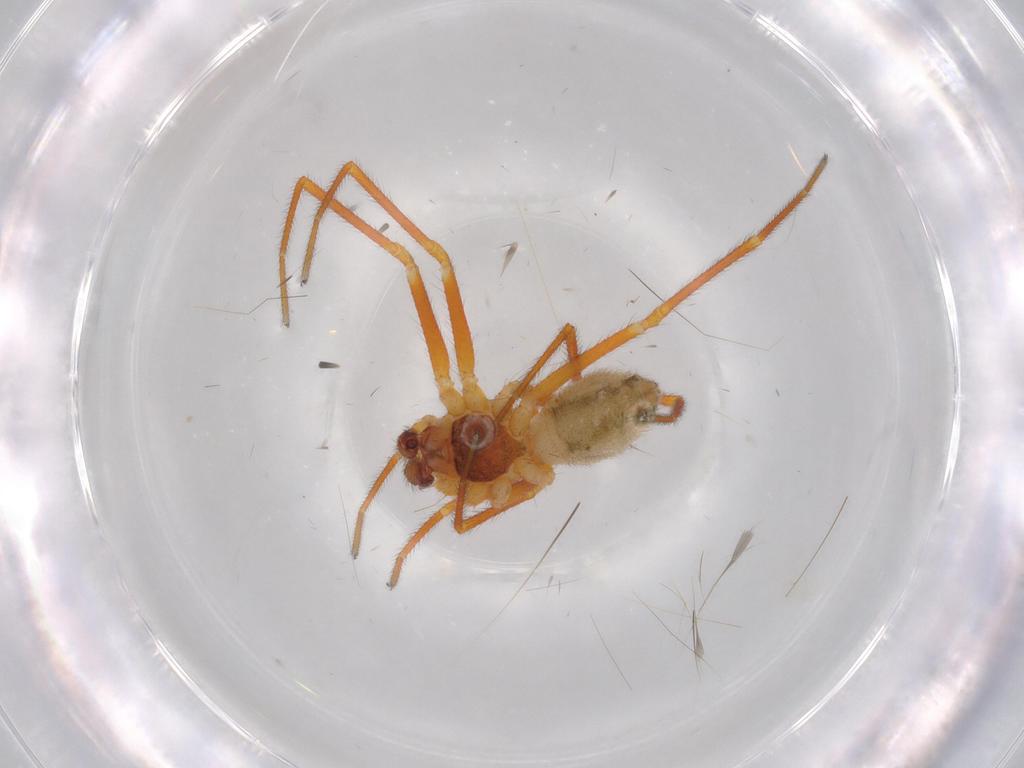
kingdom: Animalia
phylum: Arthropoda
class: Arachnida
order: Araneae
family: Linyphiidae
